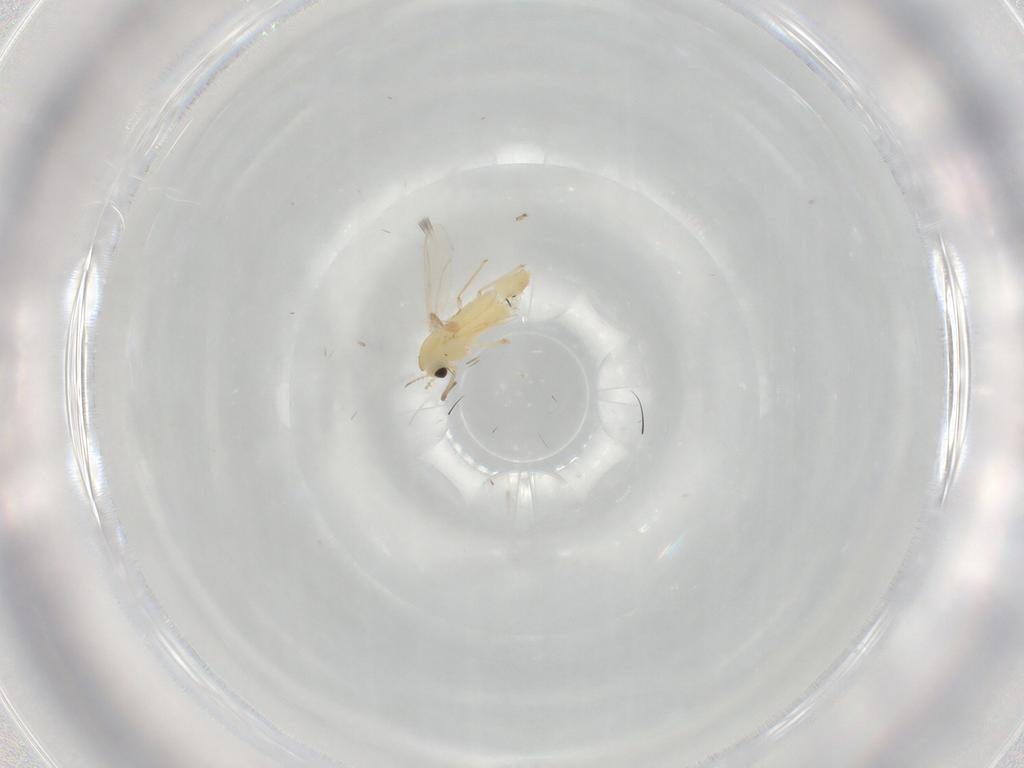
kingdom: Animalia
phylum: Arthropoda
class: Insecta
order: Diptera
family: Chironomidae
